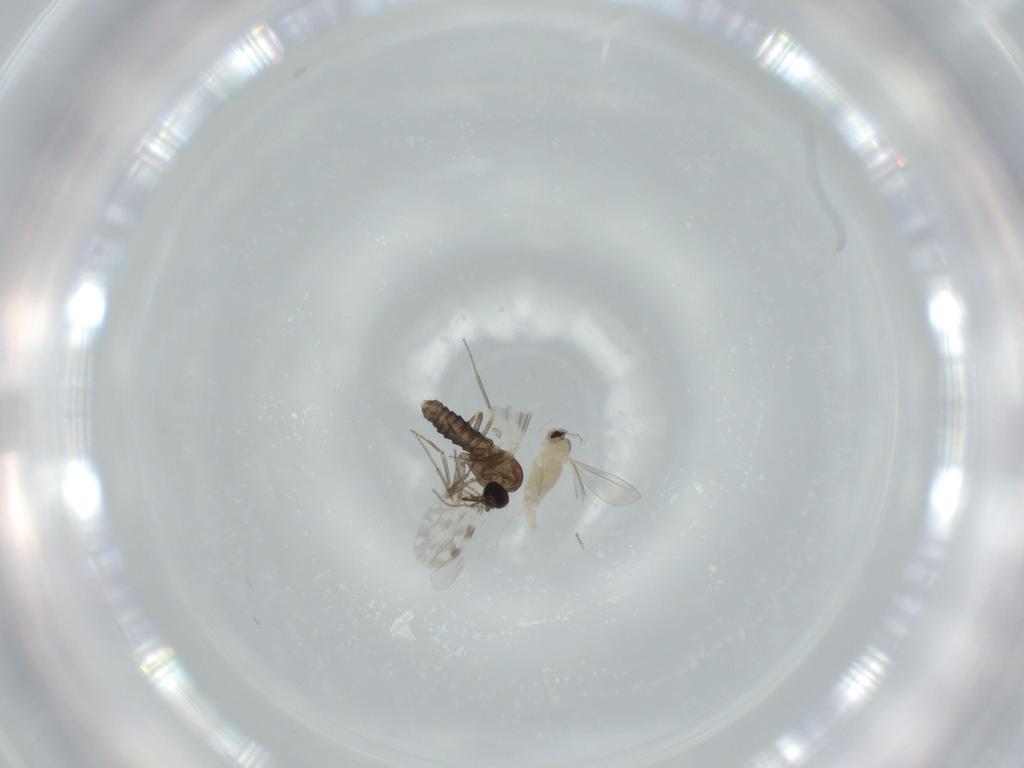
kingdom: Animalia
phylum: Arthropoda
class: Insecta
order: Diptera
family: Cecidomyiidae
